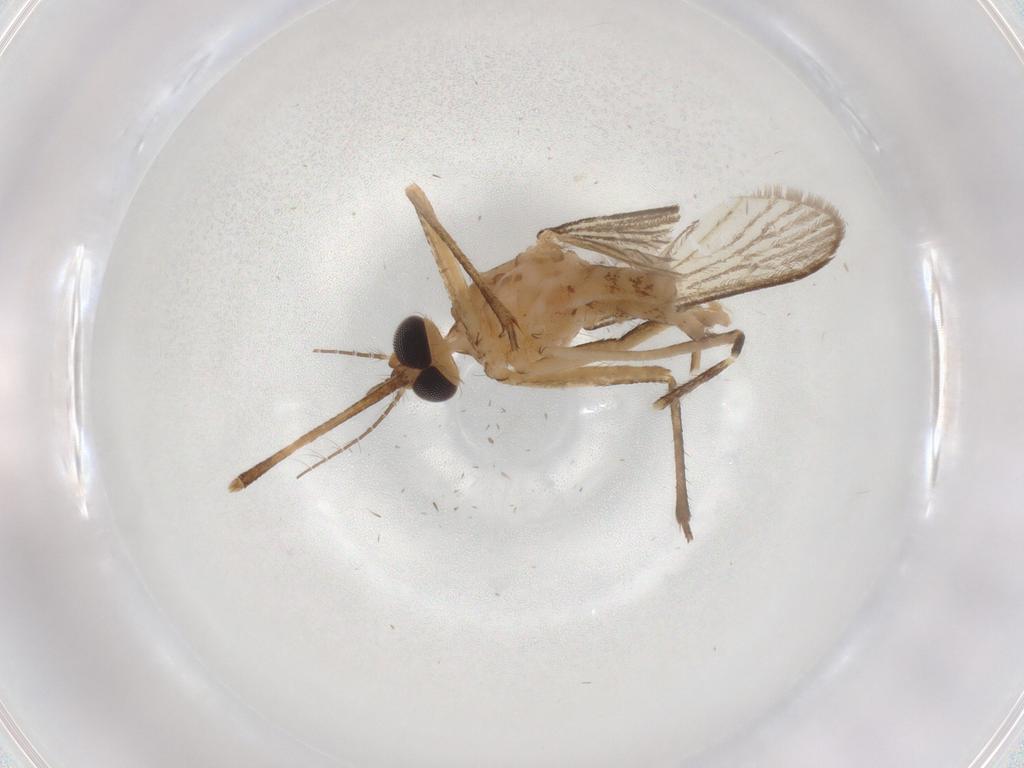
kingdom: Animalia
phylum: Arthropoda
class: Insecta
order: Diptera
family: Ceratopogonidae
